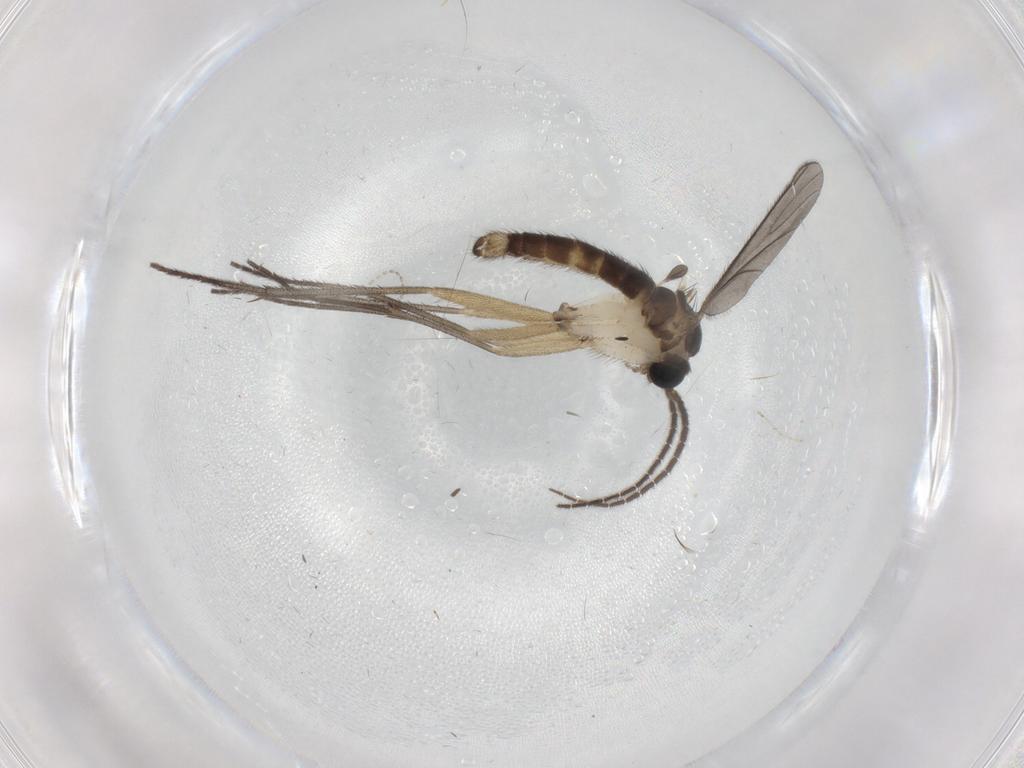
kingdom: Animalia
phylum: Arthropoda
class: Insecta
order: Diptera
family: Sciaridae
